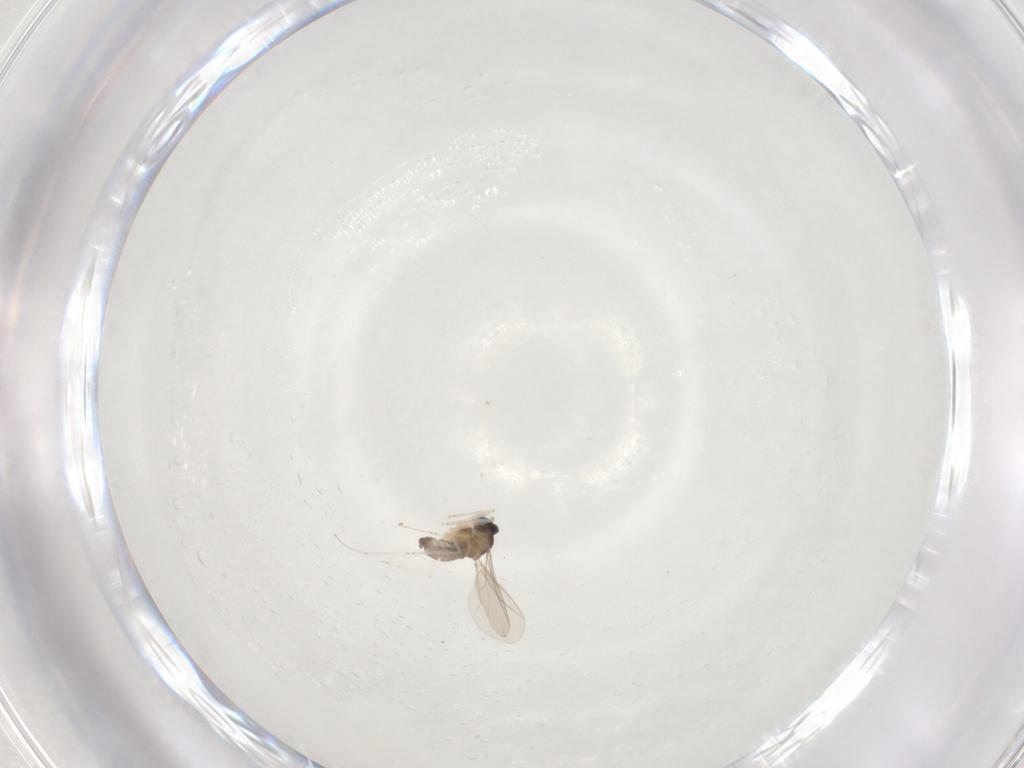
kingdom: Animalia
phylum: Arthropoda
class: Insecta
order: Diptera
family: Cecidomyiidae
